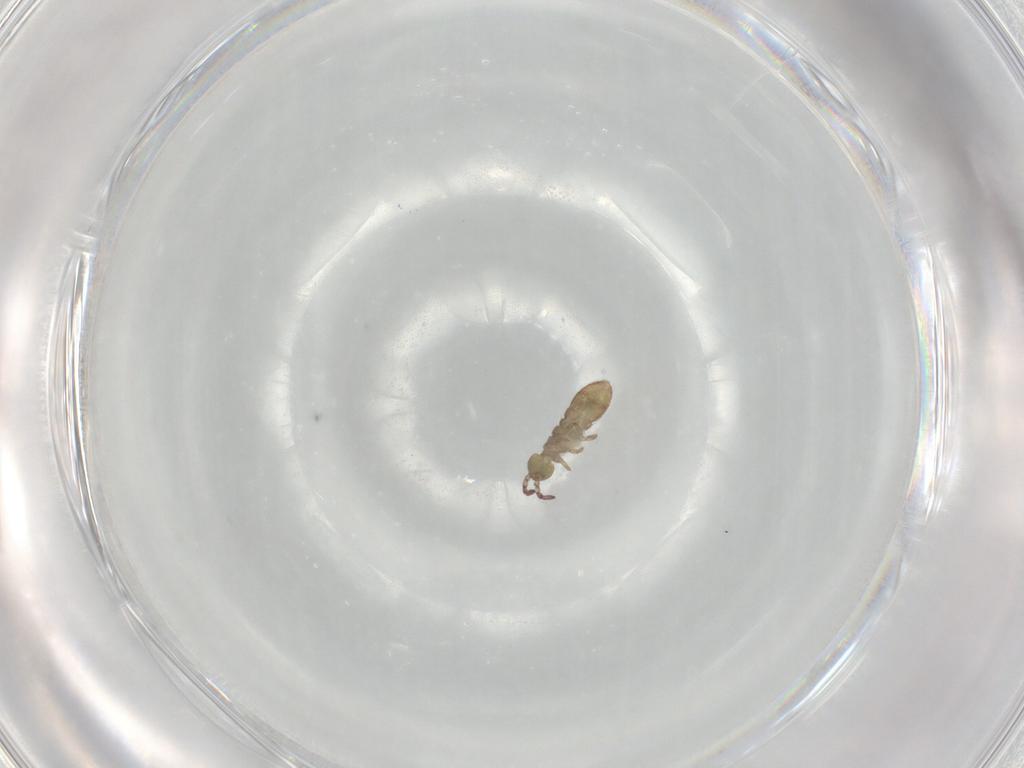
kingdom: Animalia
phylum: Arthropoda
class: Collembola
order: Entomobryomorpha
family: Isotomidae
